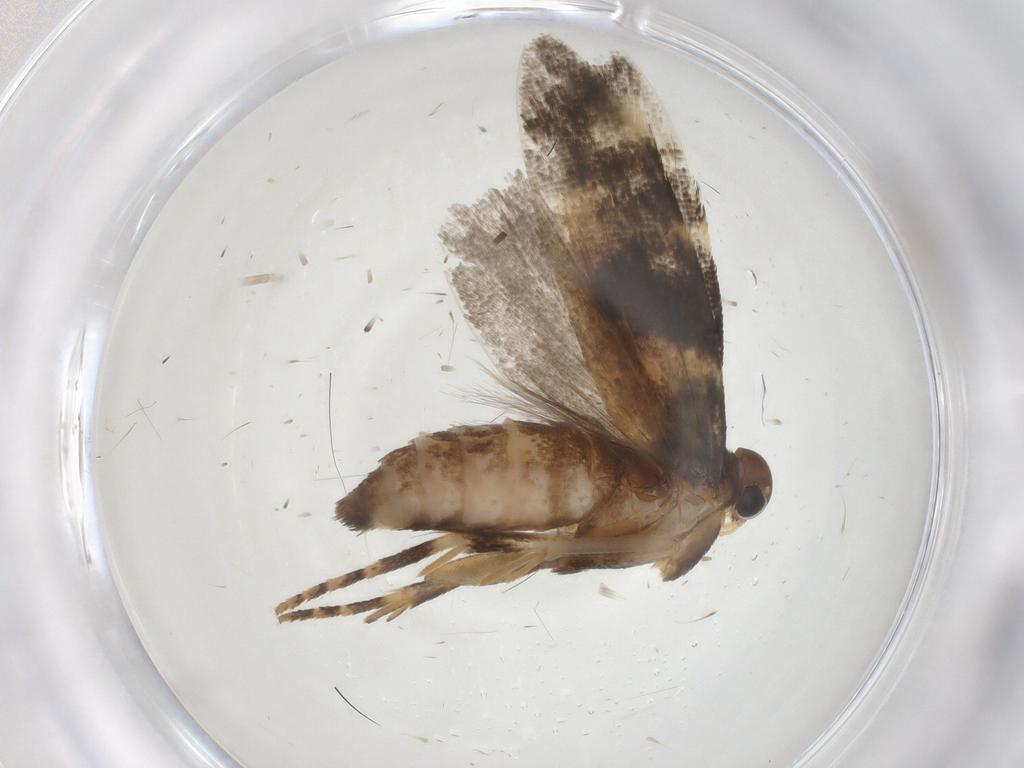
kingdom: Animalia
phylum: Arthropoda
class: Insecta
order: Lepidoptera
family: Gelechiidae
